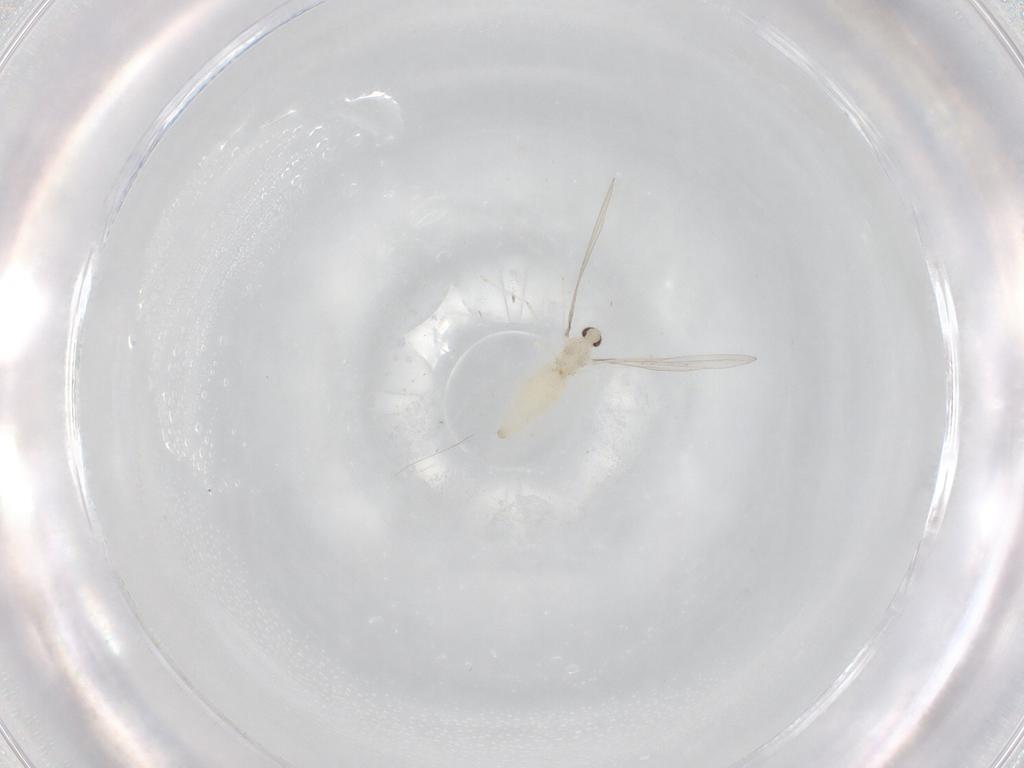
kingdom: Animalia
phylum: Arthropoda
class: Insecta
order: Diptera
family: Cecidomyiidae
